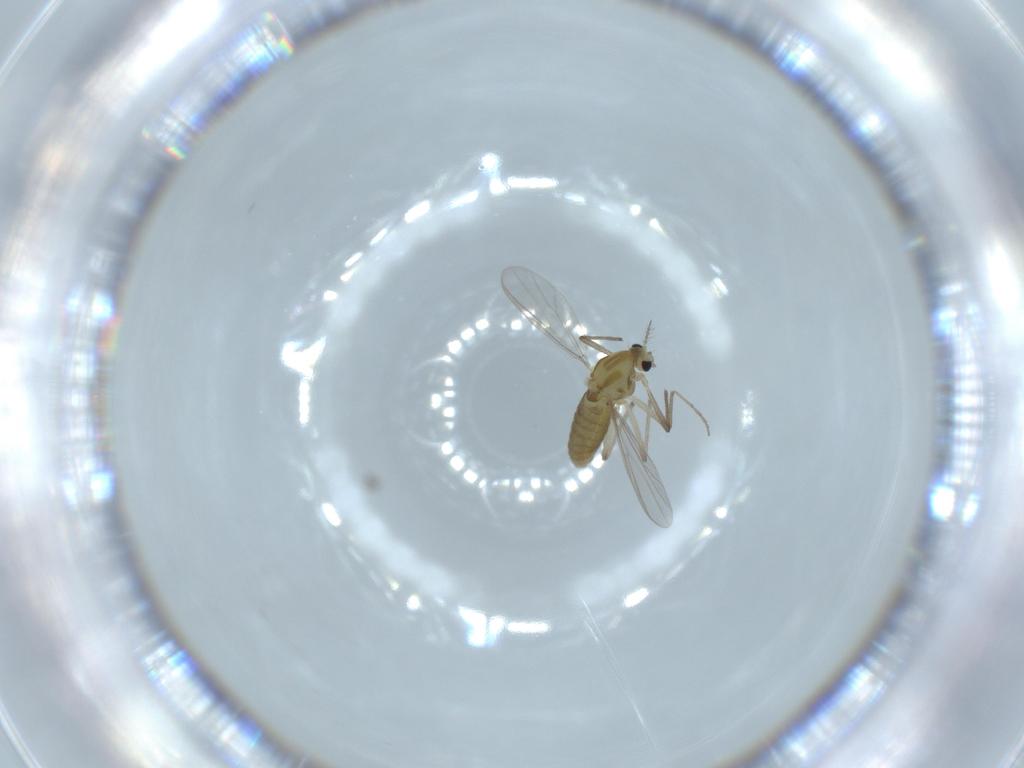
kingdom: Animalia
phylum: Arthropoda
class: Insecta
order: Diptera
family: Chironomidae
